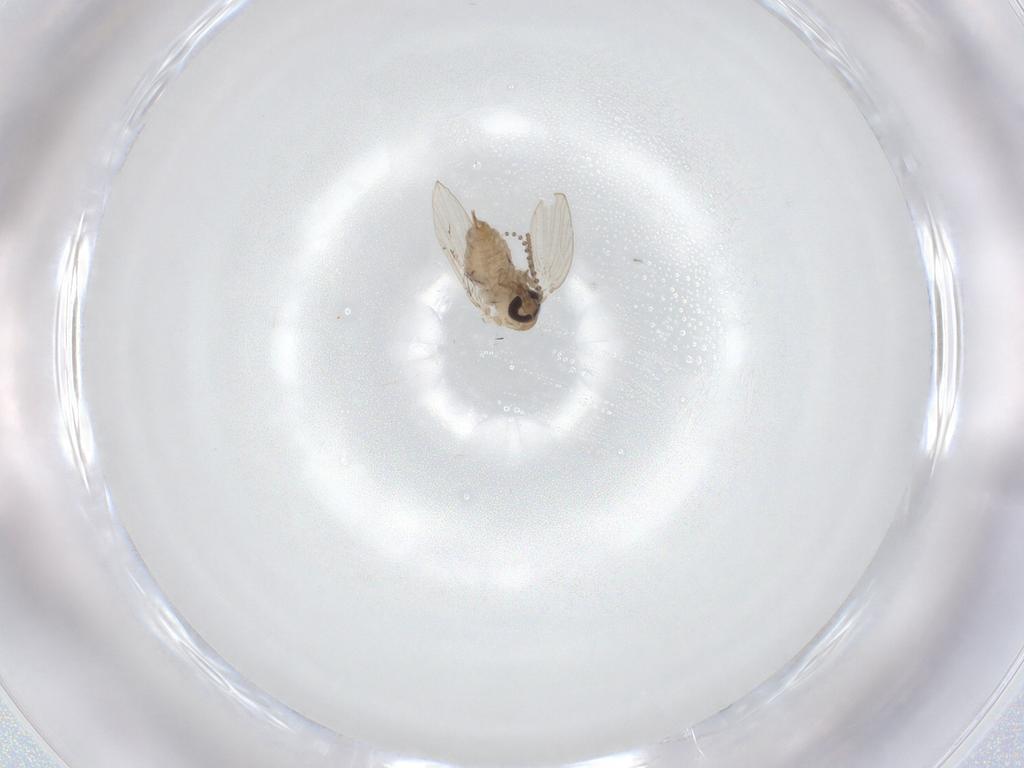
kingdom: Animalia
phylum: Arthropoda
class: Insecta
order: Diptera
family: Psychodidae
